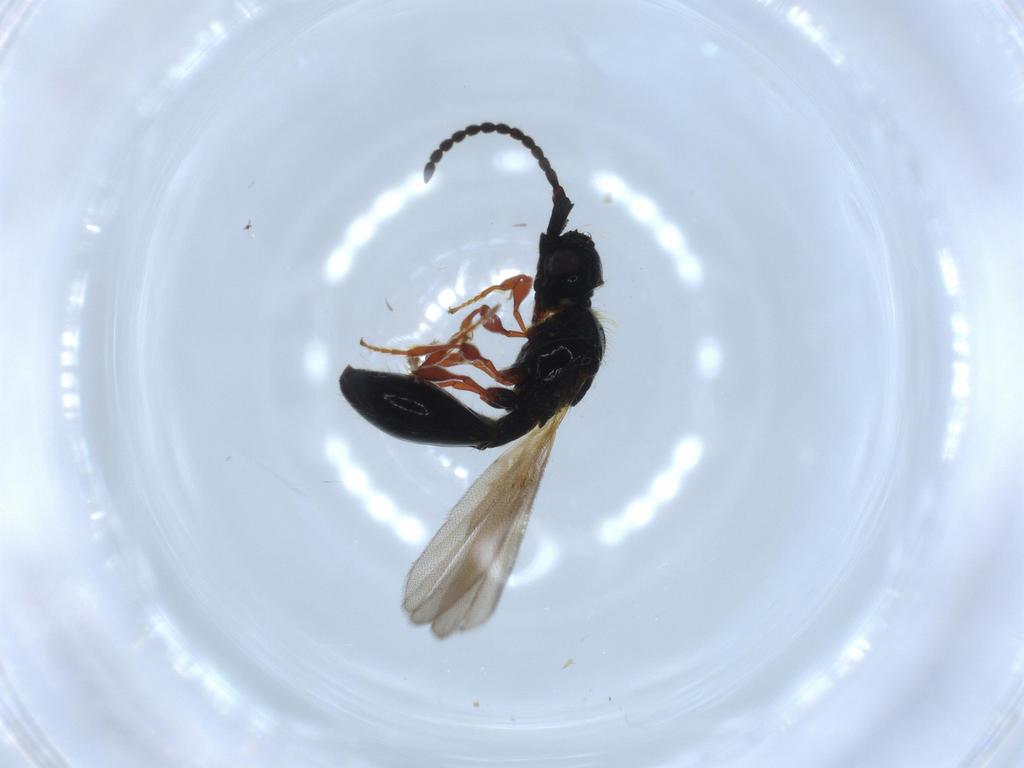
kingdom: Animalia
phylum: Arthropoda
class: Insecta
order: Hymenoptera
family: Diapriidae
